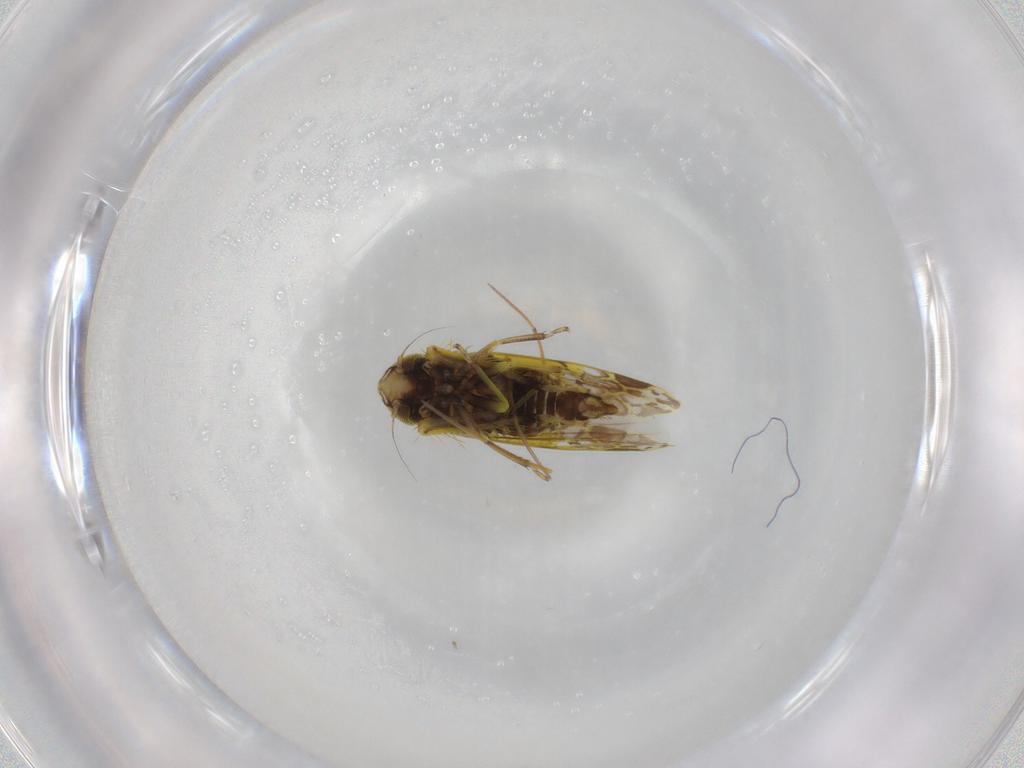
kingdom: Animalia
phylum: Arthropoda
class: Insecta
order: Hemiptera
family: Cicadellidae
